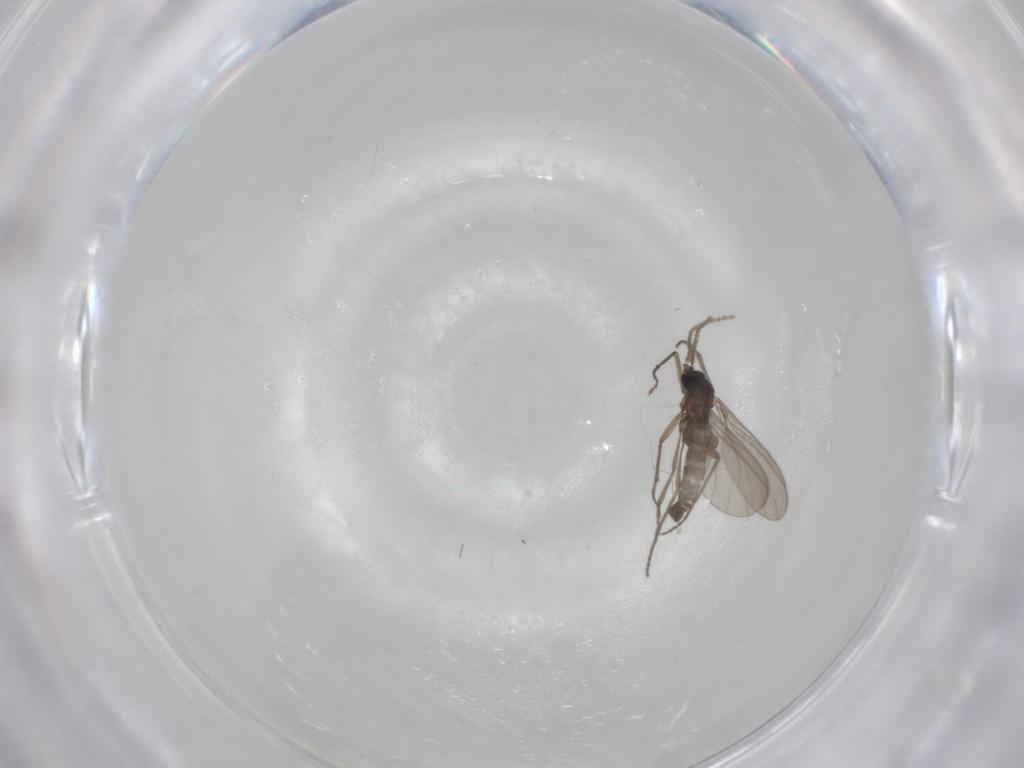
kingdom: Animalia
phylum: Arthropoda
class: Insecta
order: Diptera
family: Sciaridae
